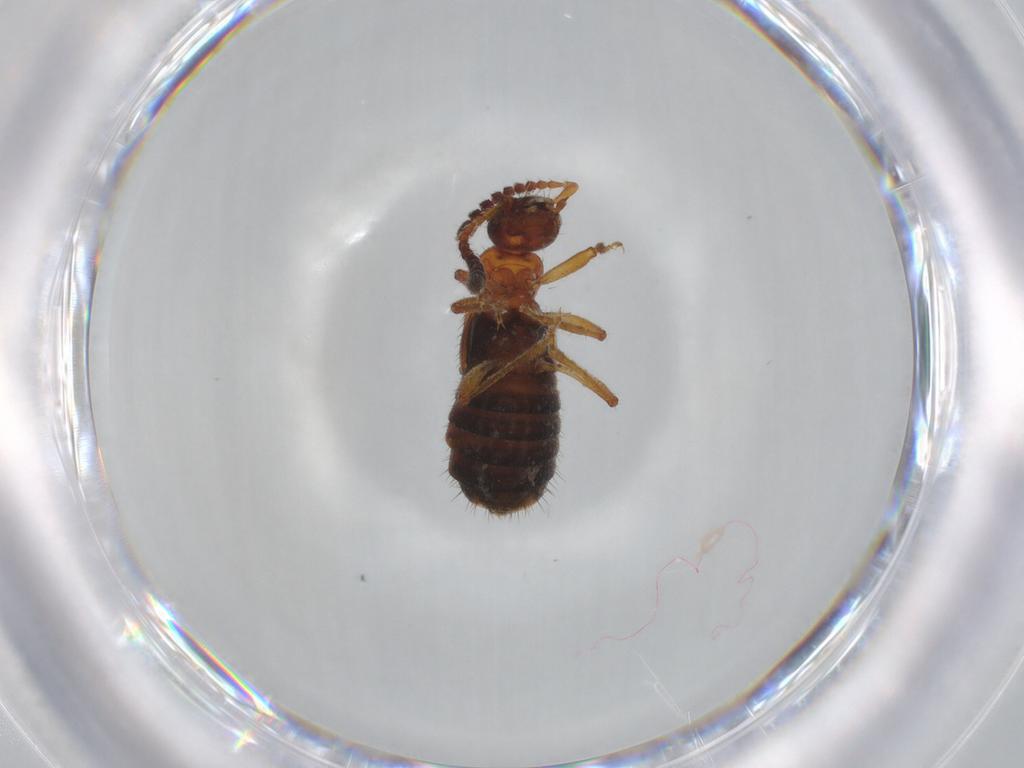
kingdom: Animalia
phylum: Arthropoda
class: Insecta
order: Coleoptera
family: Staphylinidae
